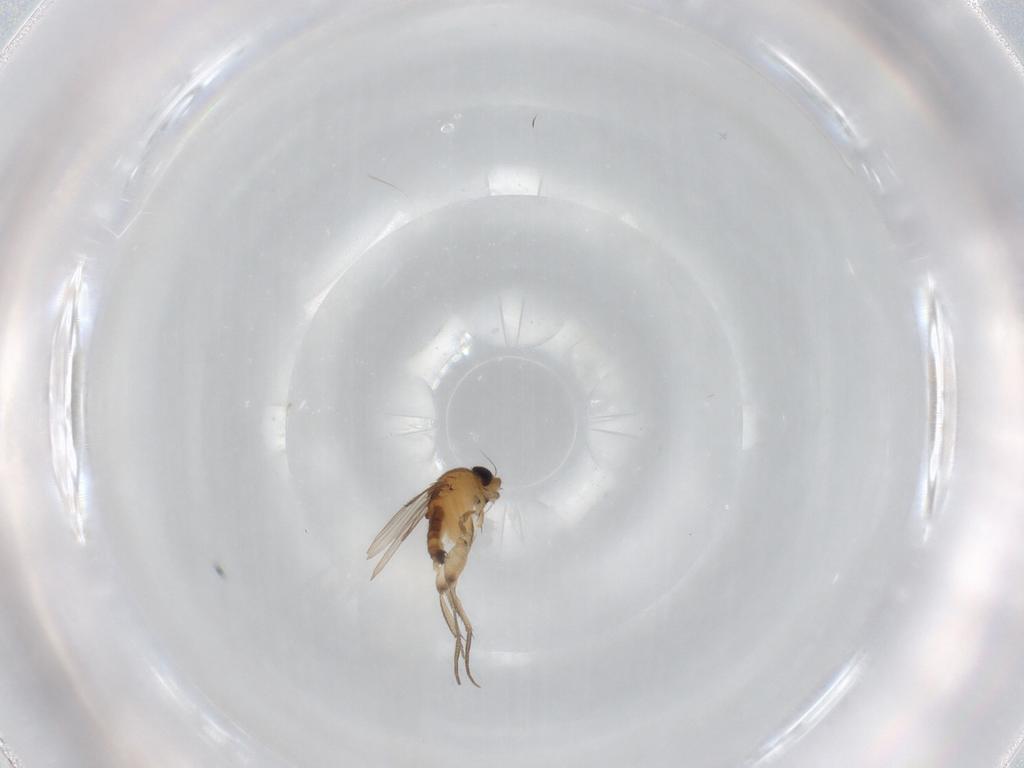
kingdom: Animalia
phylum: Arthropoda
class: Insecta
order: Diptera
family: Phoridae
